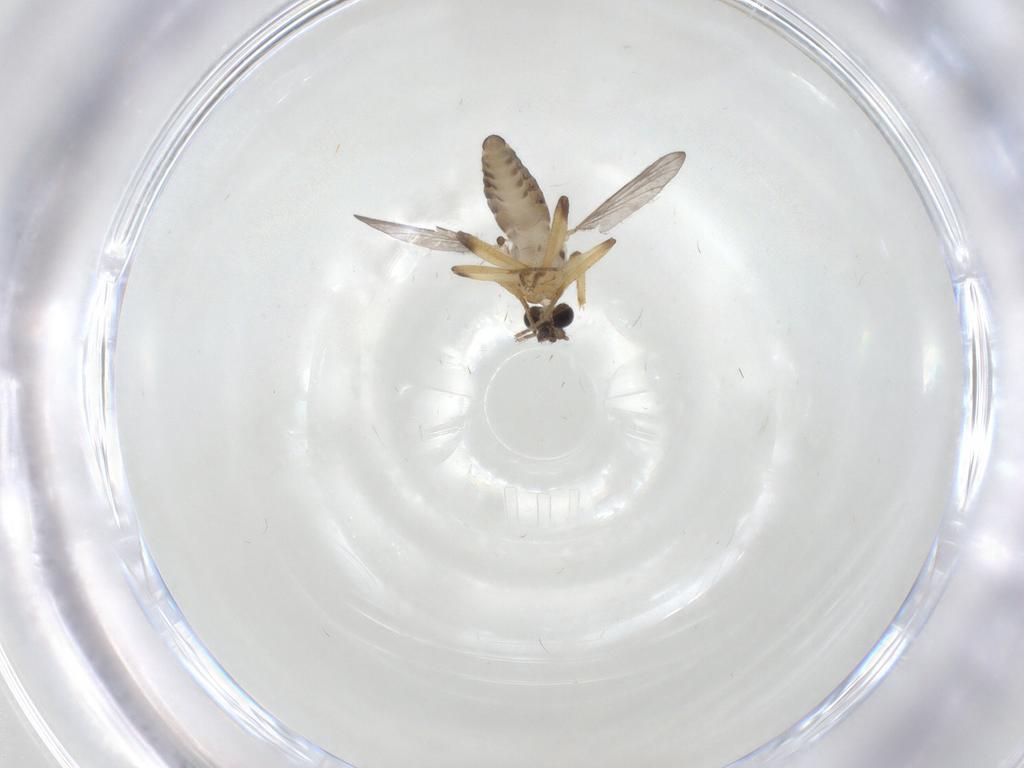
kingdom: Animalia
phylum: Arthropoda
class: Insecta
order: Diptera
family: Ceratopogonidae
